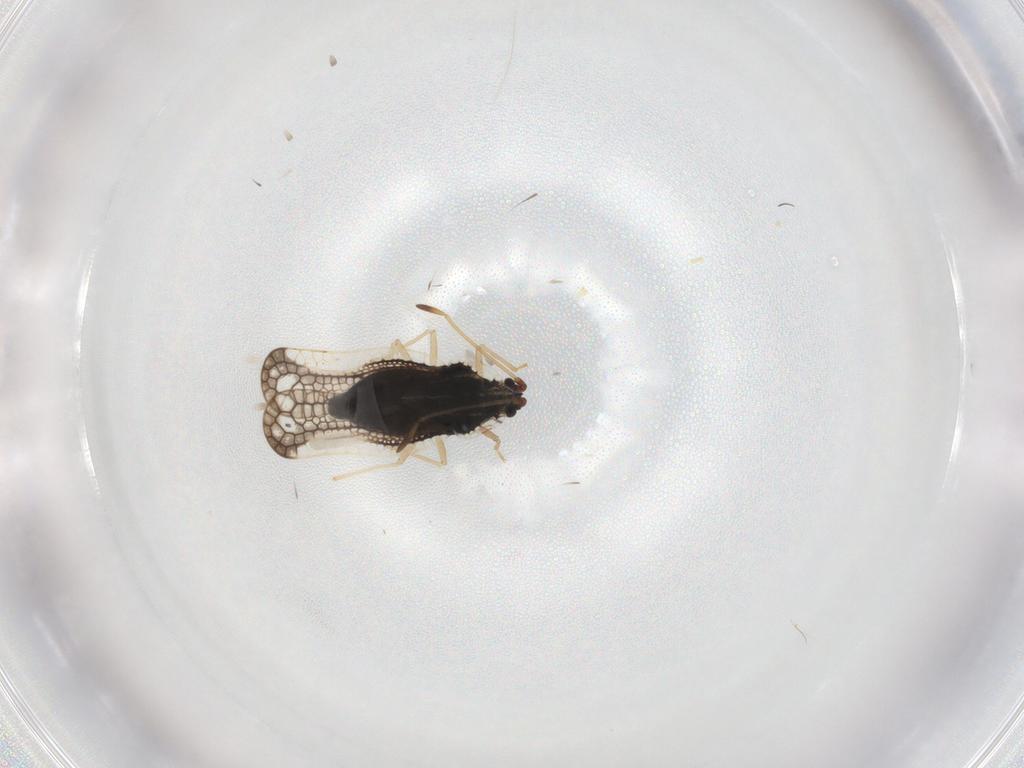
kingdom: Animalia
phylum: Arthropoda
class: Insecta
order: Hemiptera
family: Tingidae
